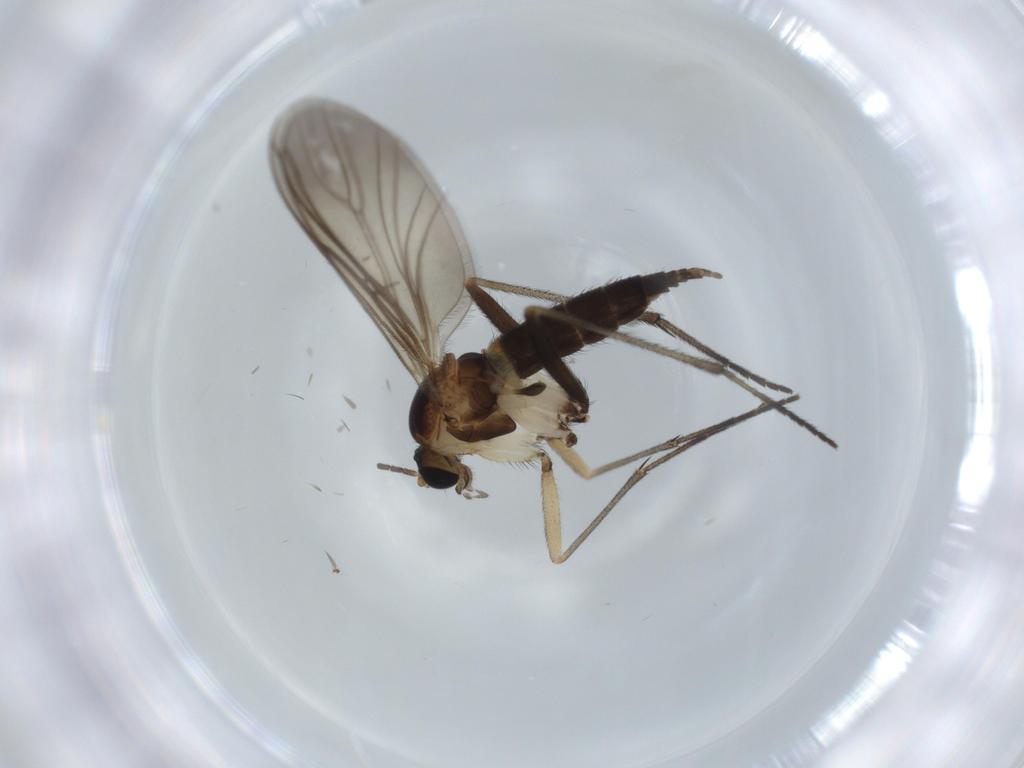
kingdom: Animalia
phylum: Arthropoda
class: Insecta
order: Diptera
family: Sciaridae
